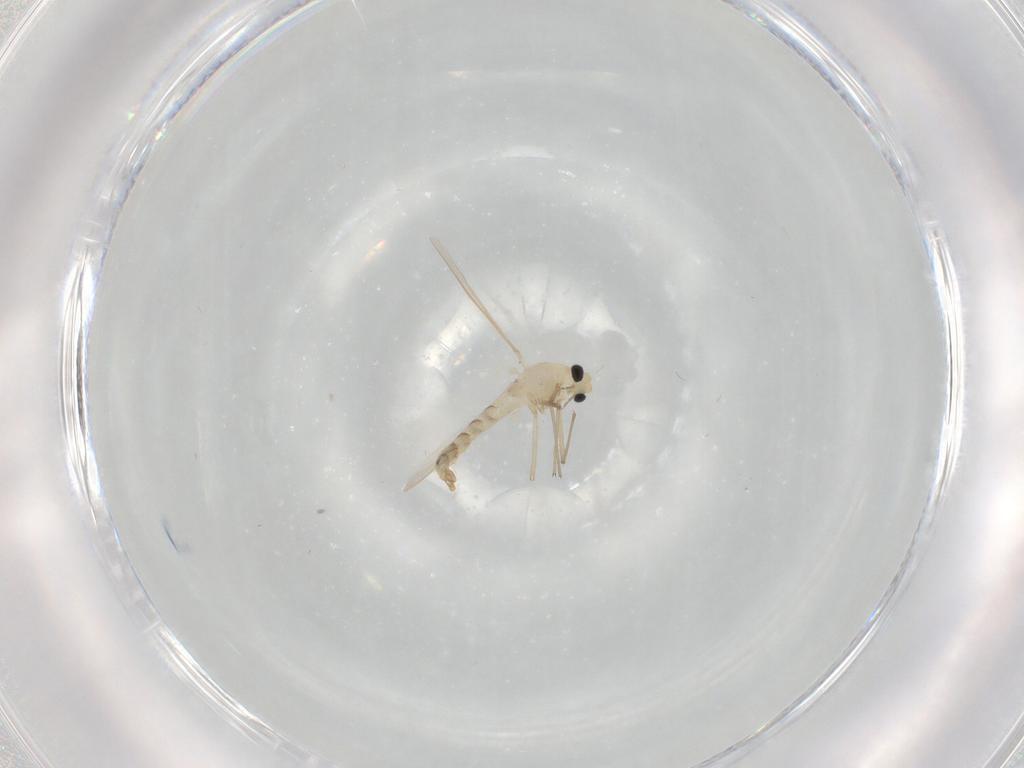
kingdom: Animalia
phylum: Arthropoda
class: Insecta
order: Diptera
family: Chironomidae
